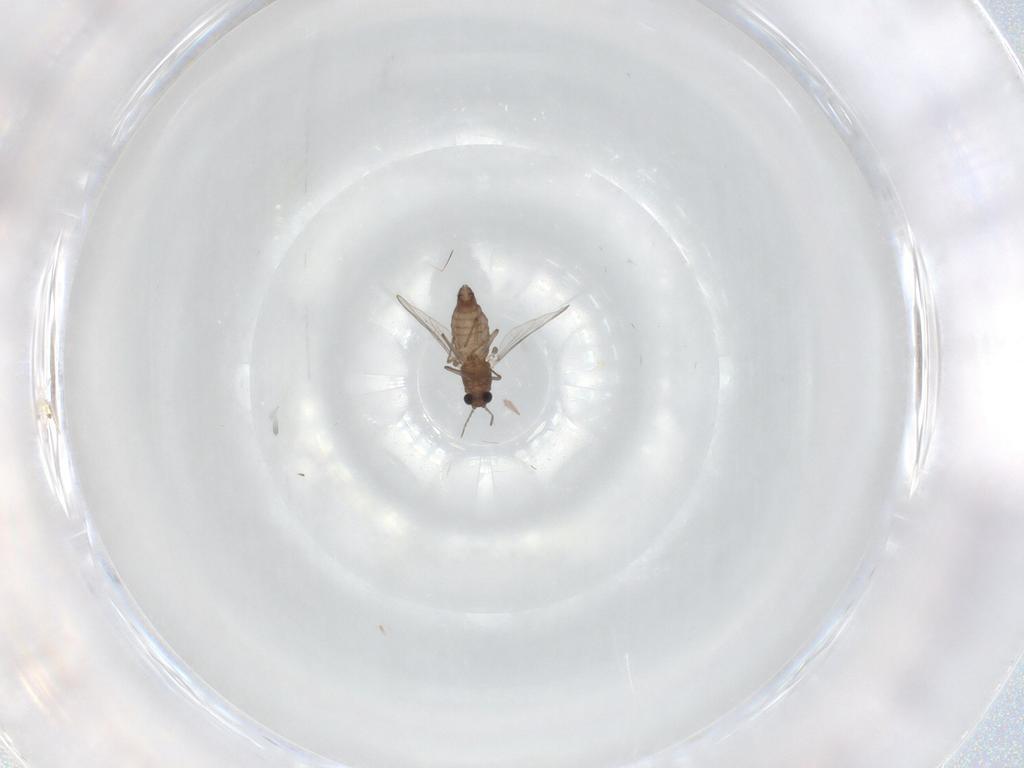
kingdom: Animalia
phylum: Arthropoda
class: Insecta
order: Diptera
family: Chironomidae
